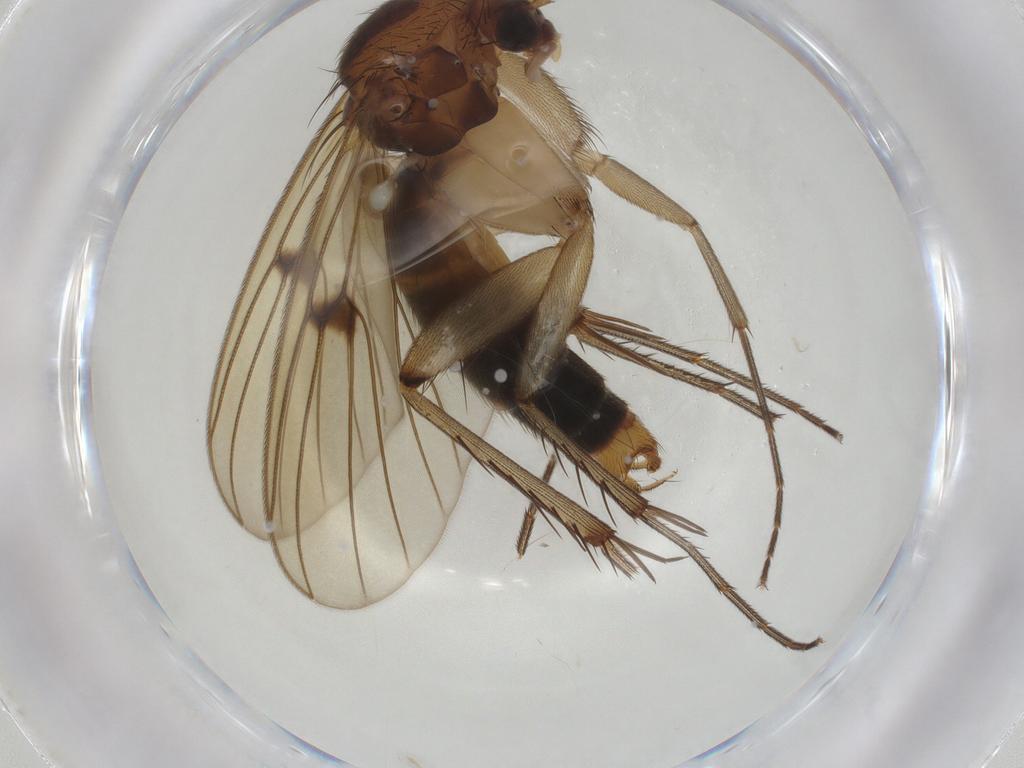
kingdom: Animalia
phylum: Arthropoda
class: Insecta
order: Diptera
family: Mycetophilidae
